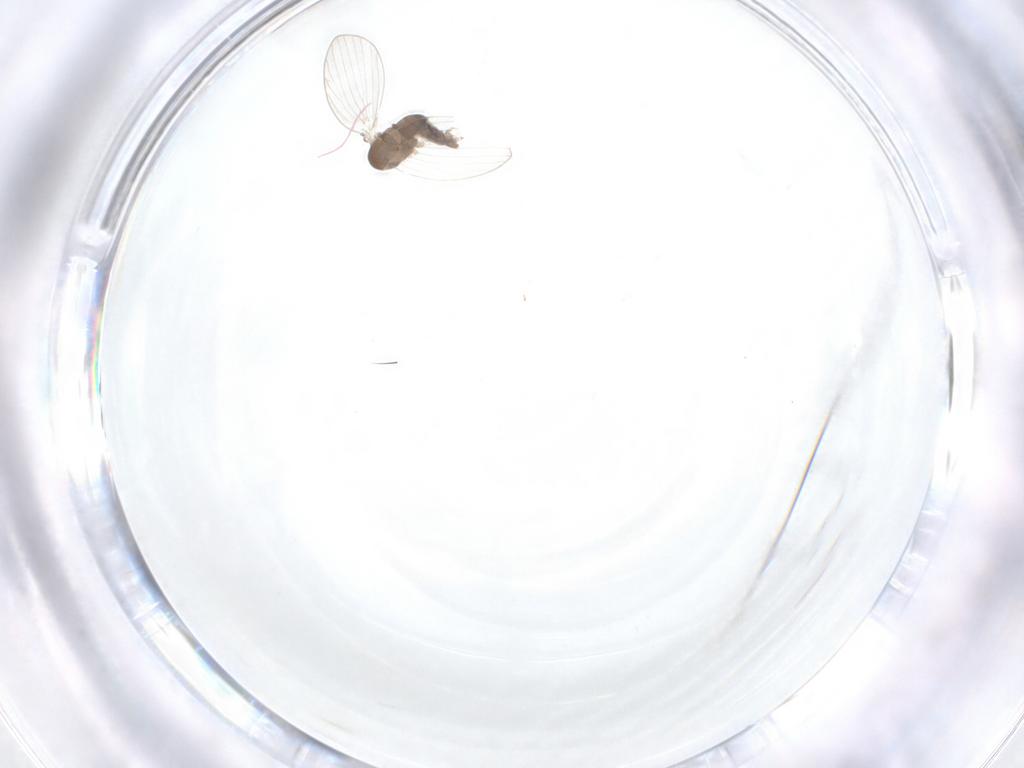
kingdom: Animalia
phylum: Arthropoda
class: Insecta
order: Diptera
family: Psychodidae
